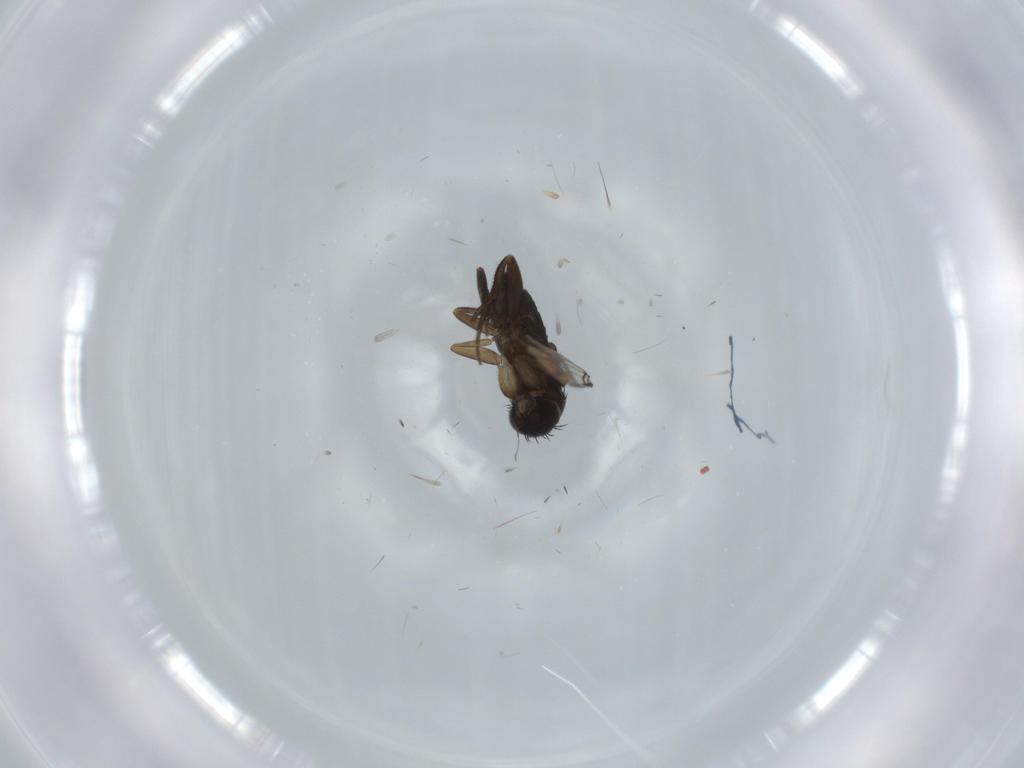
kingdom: Animalia
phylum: Arthropoda
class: Insecta
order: Diptera
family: Phoridae
